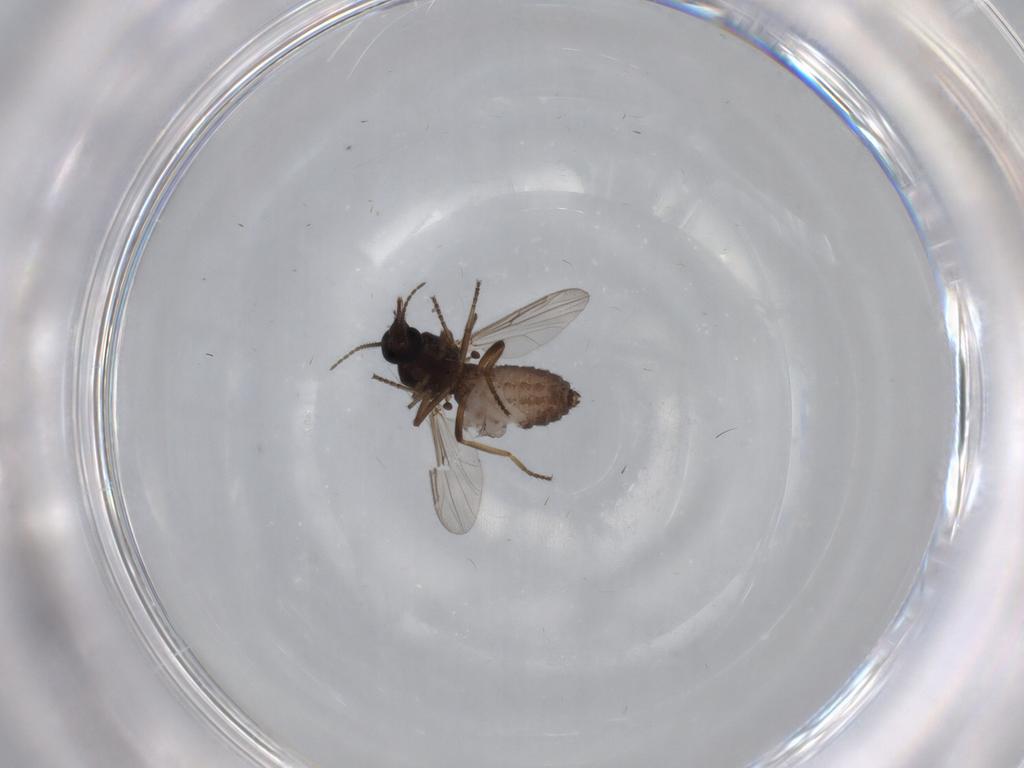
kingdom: Animalia
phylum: Arthropoda
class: Insecta
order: Diptera
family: Ceratopogonidae
